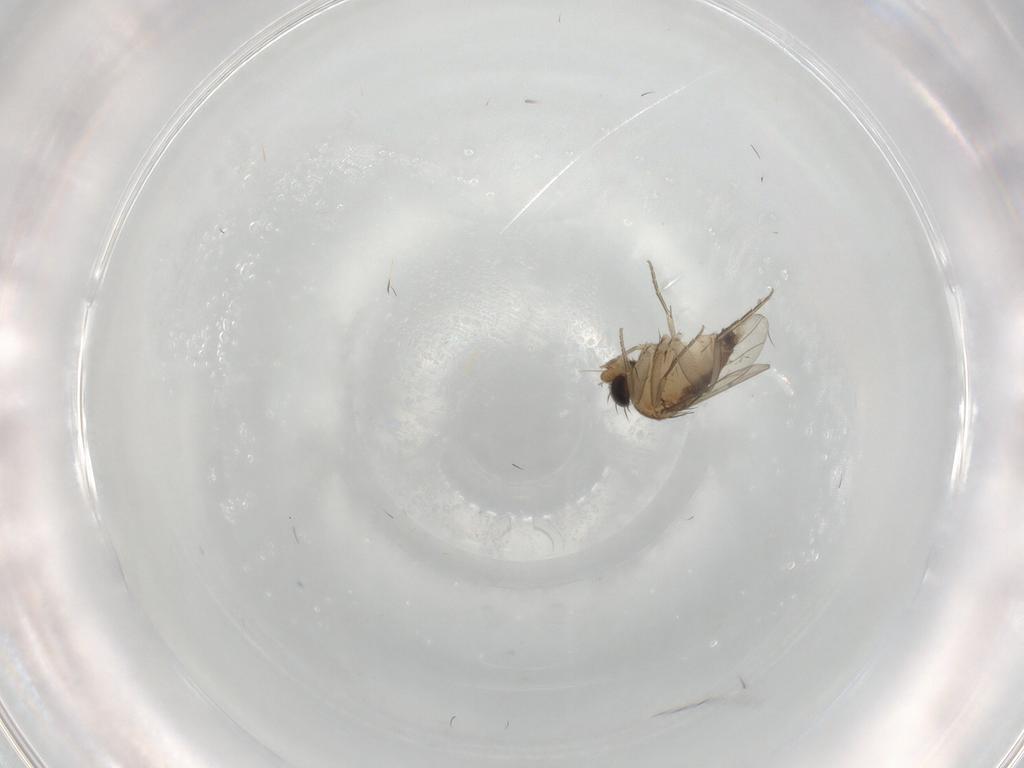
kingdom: Animalia
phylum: Arthropoda
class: Insecta
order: Diptera
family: Phoridae
